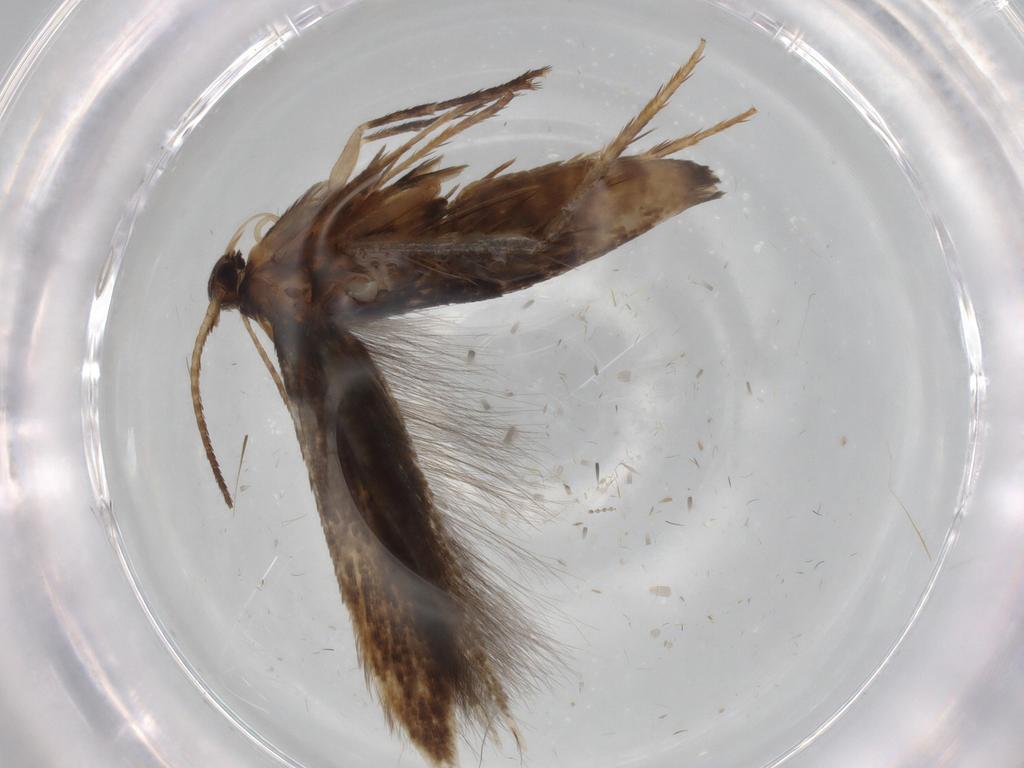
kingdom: Animalia
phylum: Arthropoda
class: Insecta
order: Lepidoptera
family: Epermeniidae
